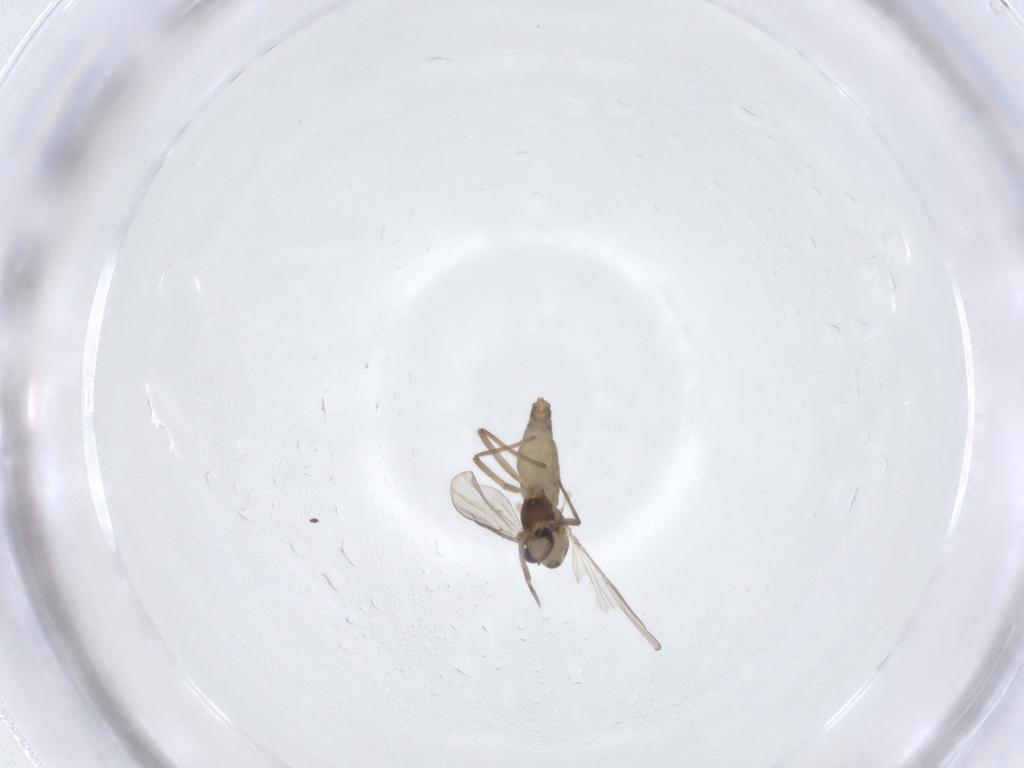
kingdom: Animalia
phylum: Arthropoda
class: Insecta
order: Diptera
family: Chironomidae
